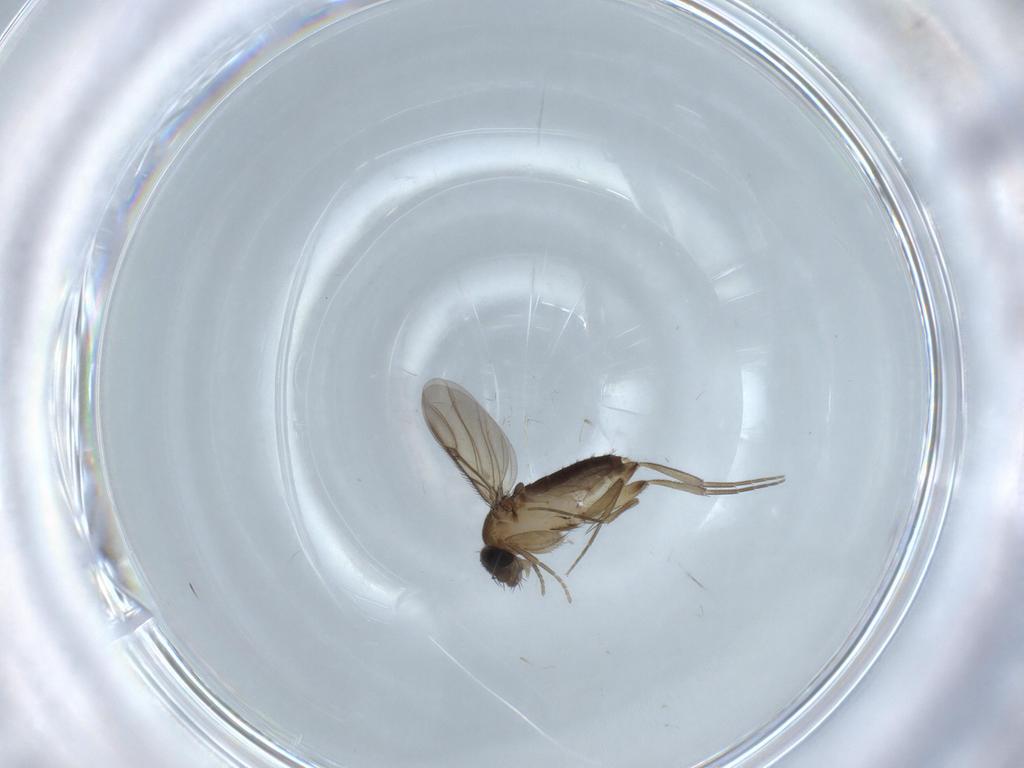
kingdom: Animalia
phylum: Arthropoda
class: Insecta
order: Diptera
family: Phoridae
